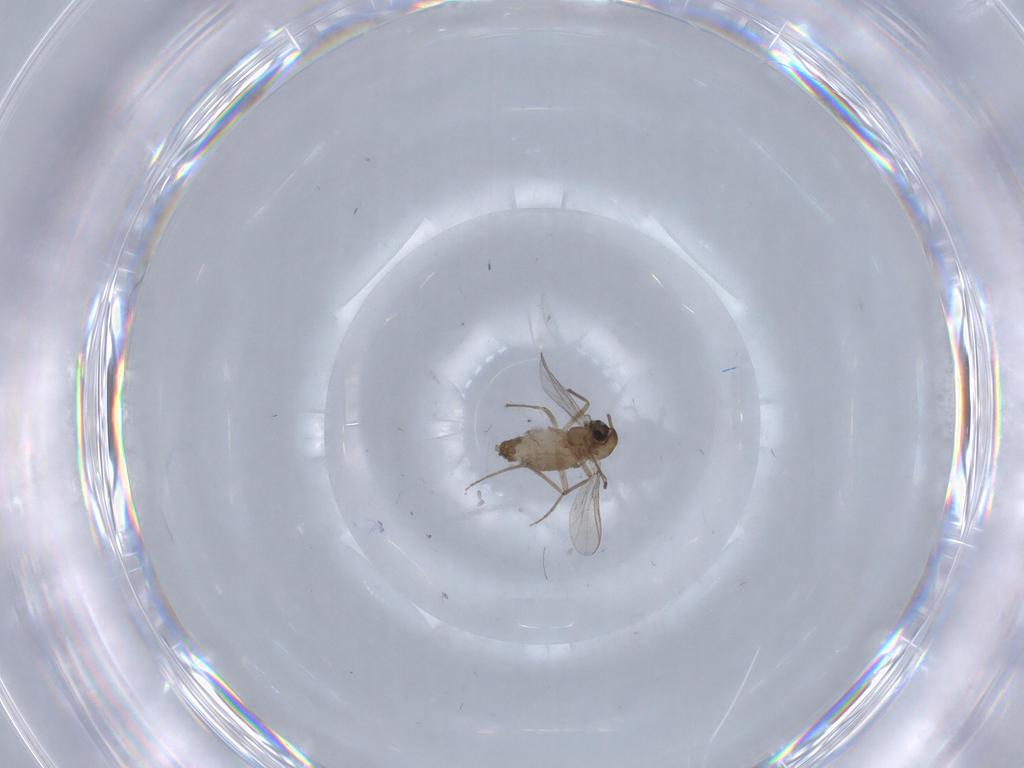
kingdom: Animalia
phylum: Arthropoda
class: Insecta
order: Diptera
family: Chironomidae
